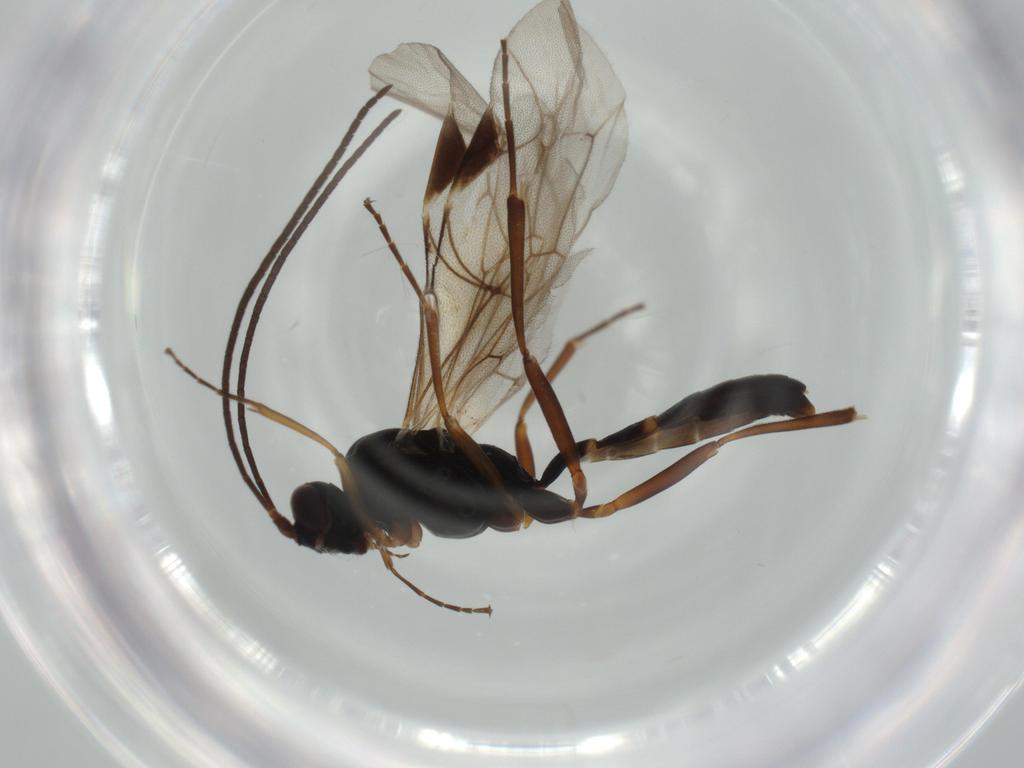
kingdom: Animalia
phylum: Arthropoda
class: Insecta
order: Hymenoptera
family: Ichneumonidae
